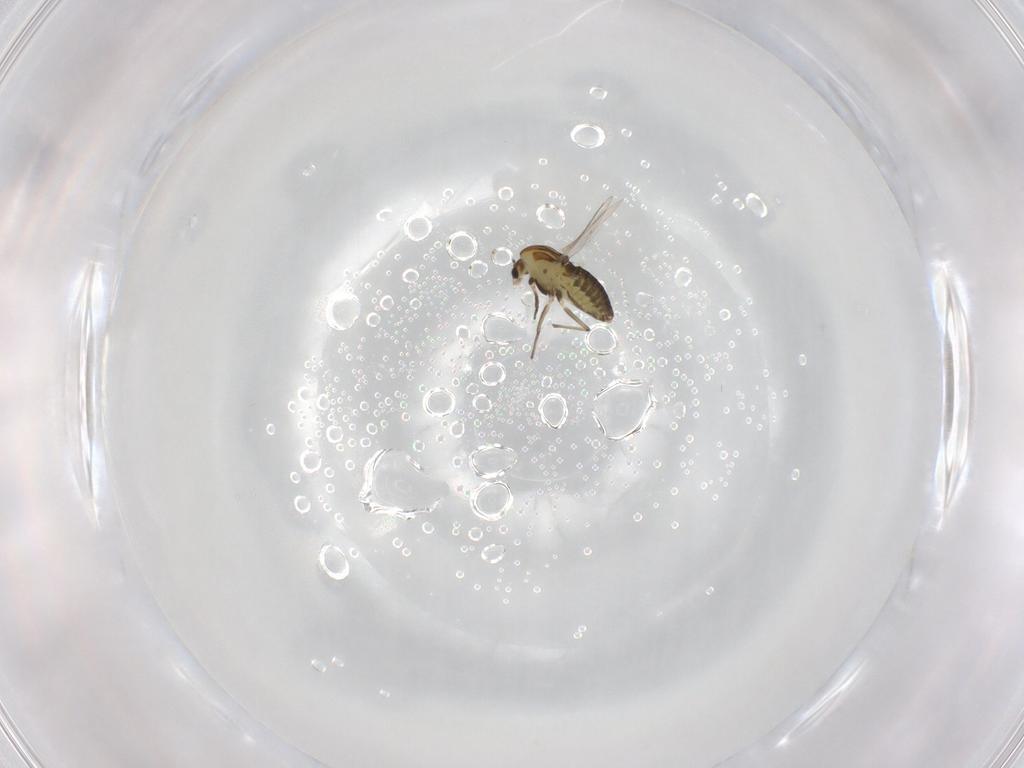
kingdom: Animalia
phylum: Arthropoda
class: Insecta
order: Diptera
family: Chironomidae
